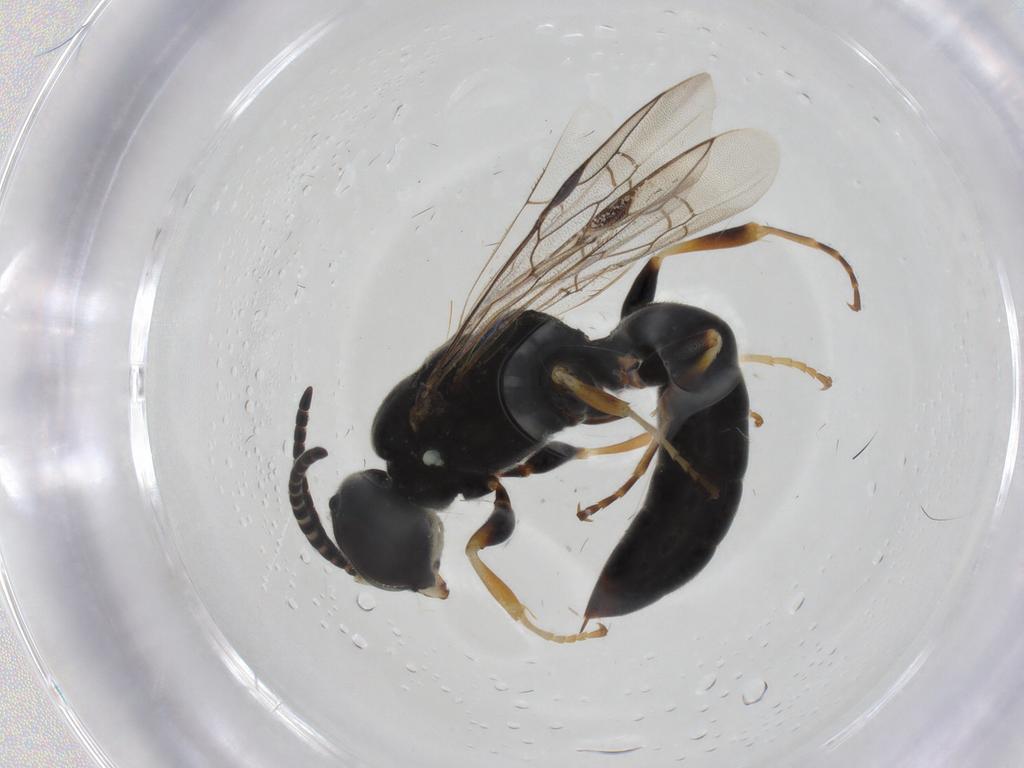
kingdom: Animalia
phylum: Arthropoda
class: Insecta
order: Hymenoptera
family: Pemphredonidae
